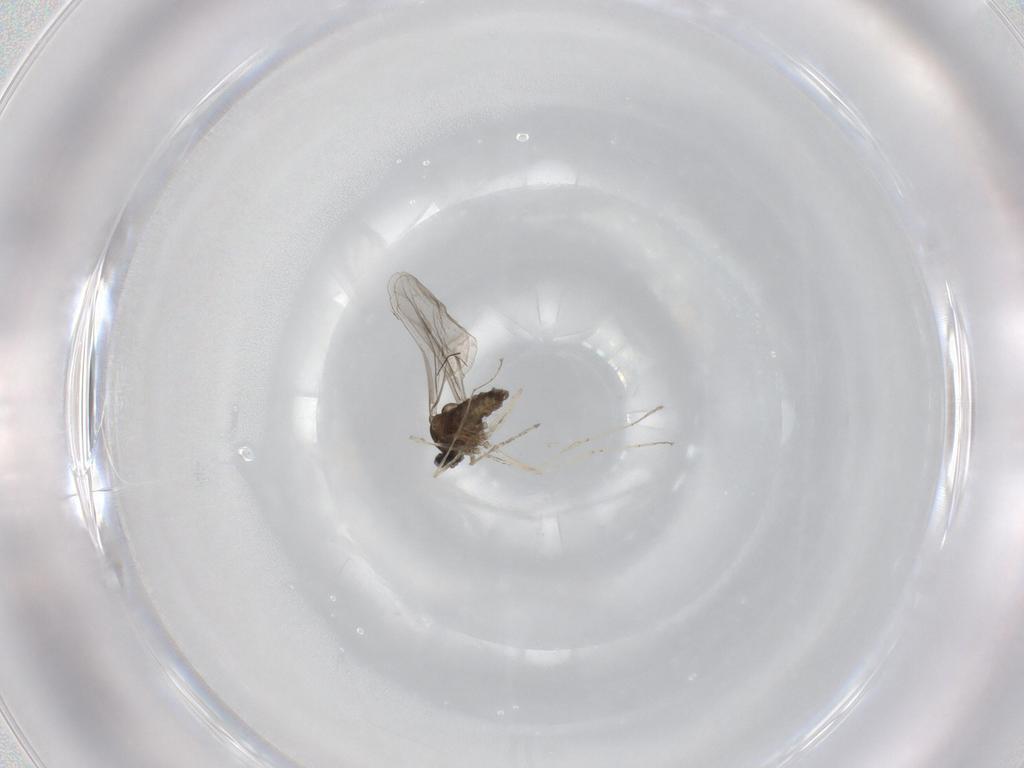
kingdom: Animalia
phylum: Arthropoda
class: Insecta
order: Diptera
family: Cecidomyiidae
